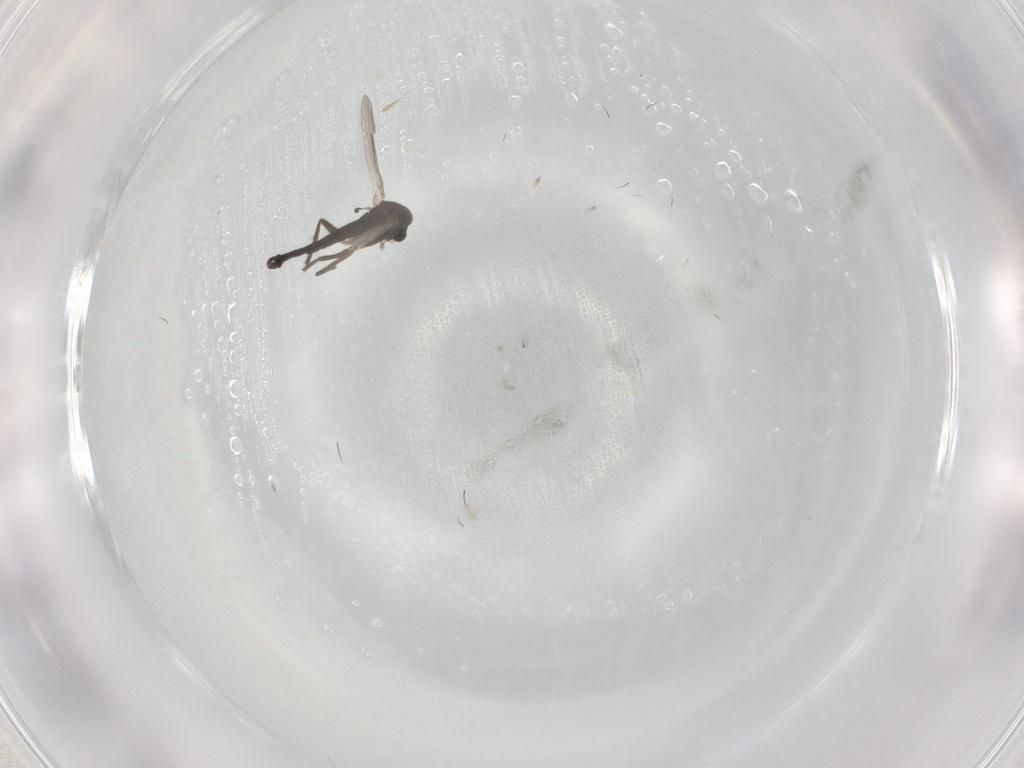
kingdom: Animalia
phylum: Arthropoda
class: Insecta
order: Diptera
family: Chironomidae
